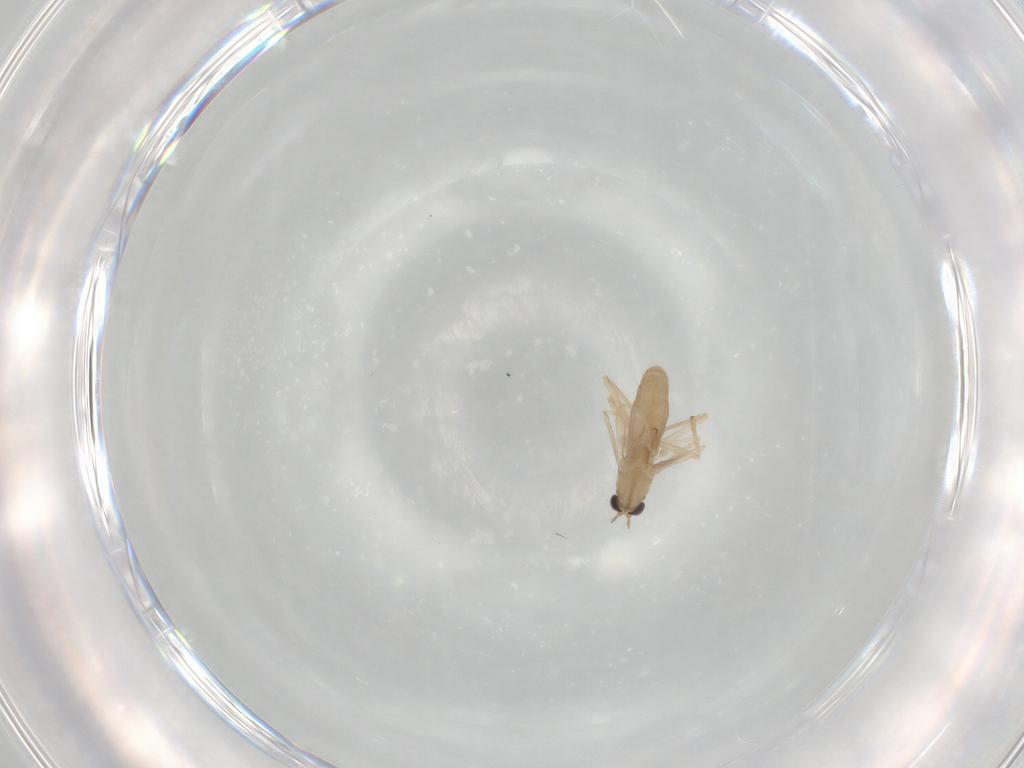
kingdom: Animalia
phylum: Arthropoda
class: Insecta
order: Diptera
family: Chironomidae
